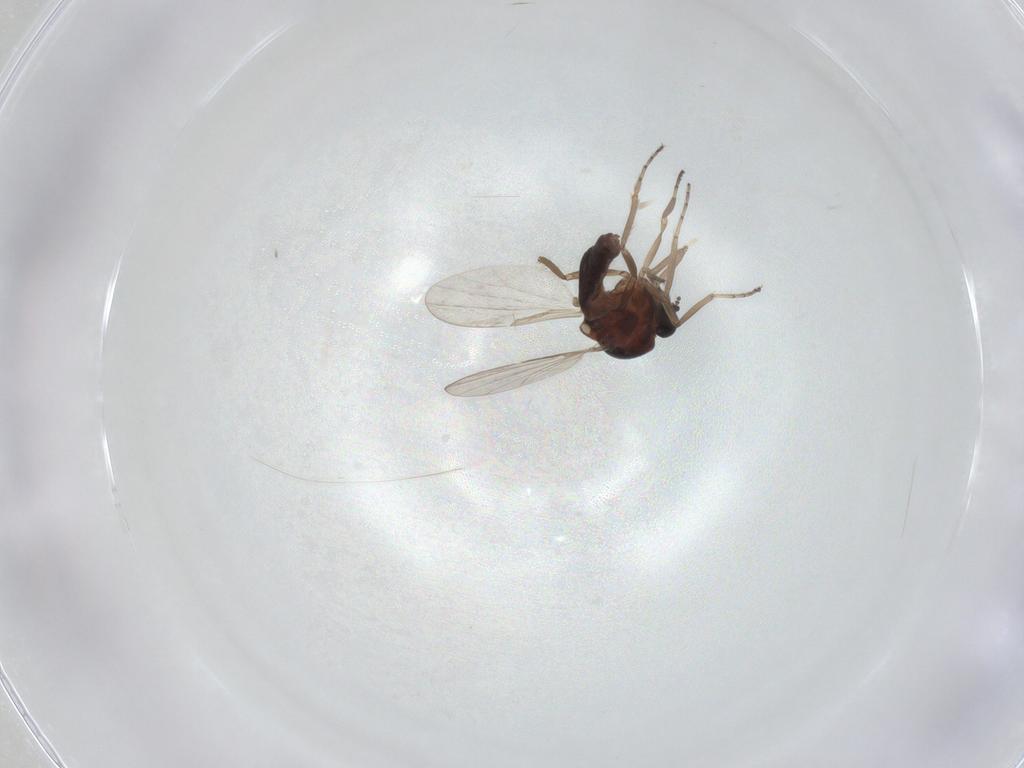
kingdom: Animalia
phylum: Arthropoda
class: Insecta
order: Diptera
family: Ceratopogonidae
